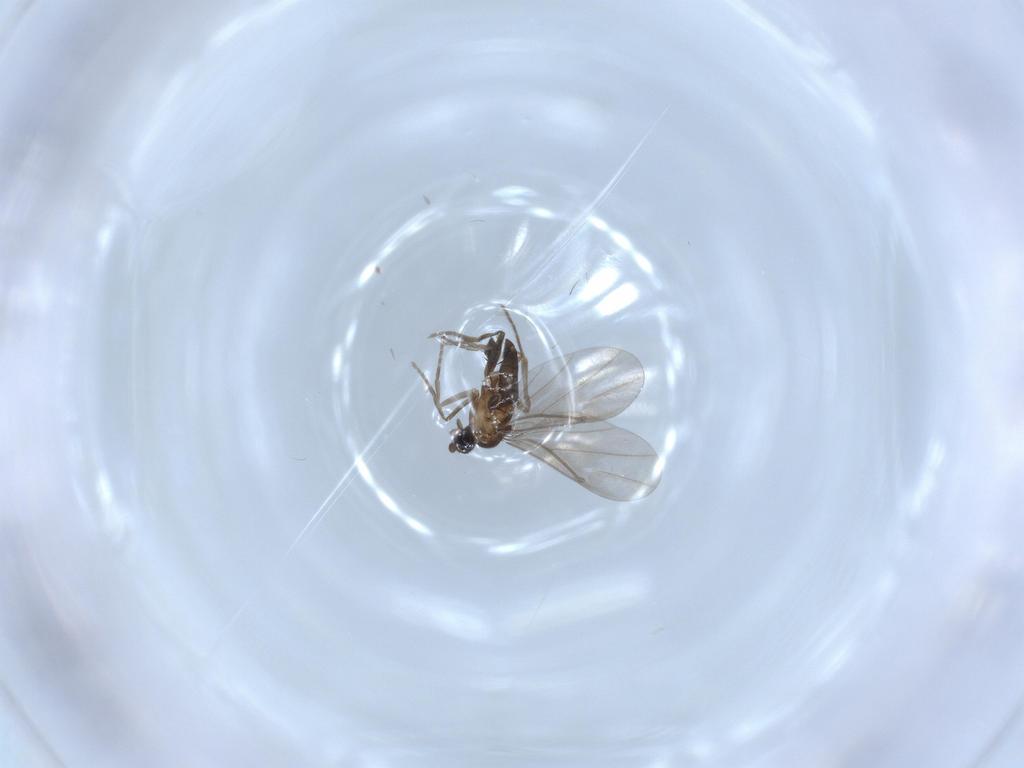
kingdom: Animalia
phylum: Arthropoda
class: Insecta
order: Diptera
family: Phoridae
